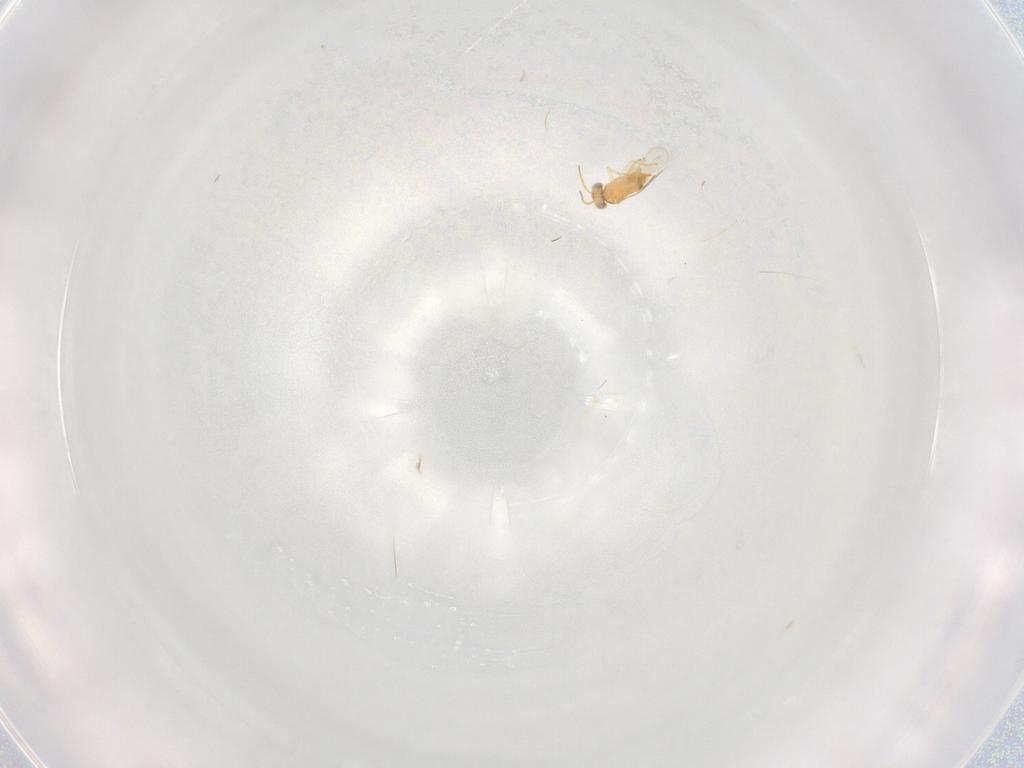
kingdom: Animalia
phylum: Arthropoda
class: Insecta
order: Hymenoptera
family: Aphelinidae
